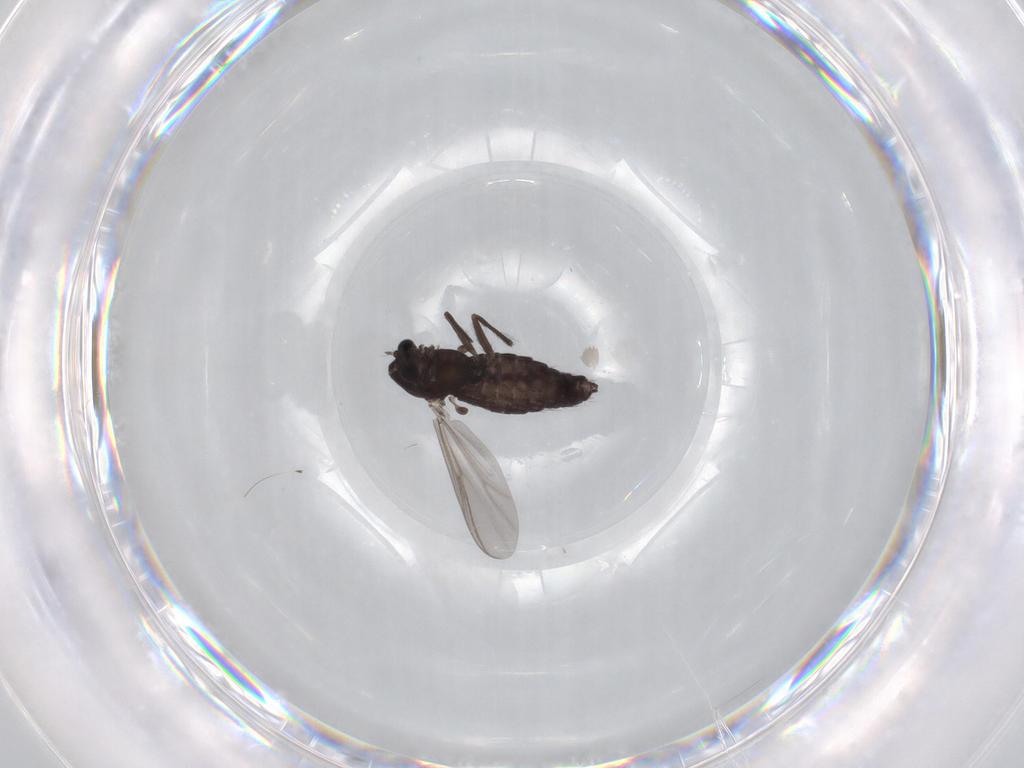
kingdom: Animalia
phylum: Arthropoda
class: Insecta
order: Diptera
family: Chironomidae
